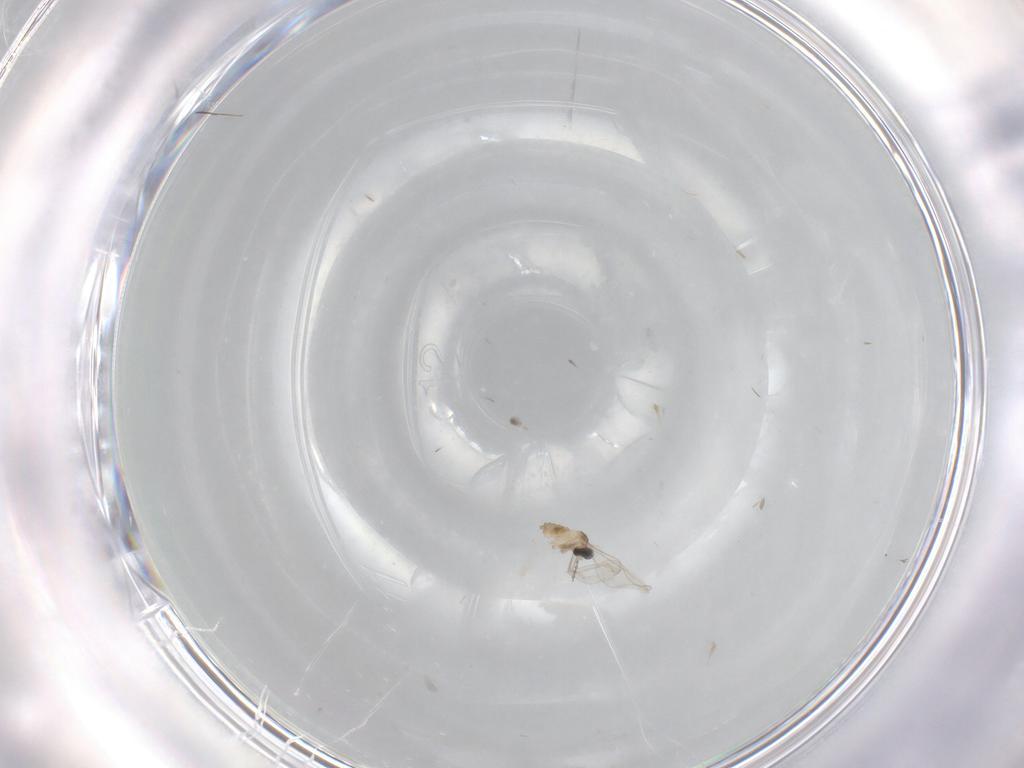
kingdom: Animalia
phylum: Arthropoda
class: Insecta
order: Diptera
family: Cecidomyiidae
